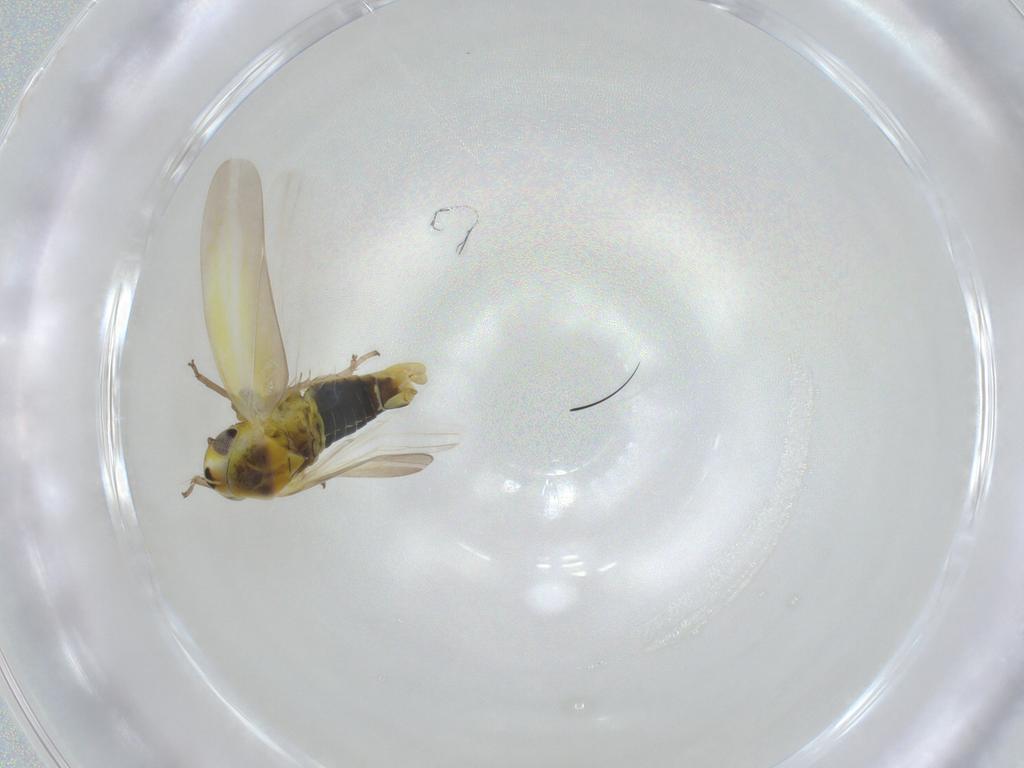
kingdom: Animalia
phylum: Arthropoda
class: Insecta
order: Hemiptera
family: Cicadellidae
